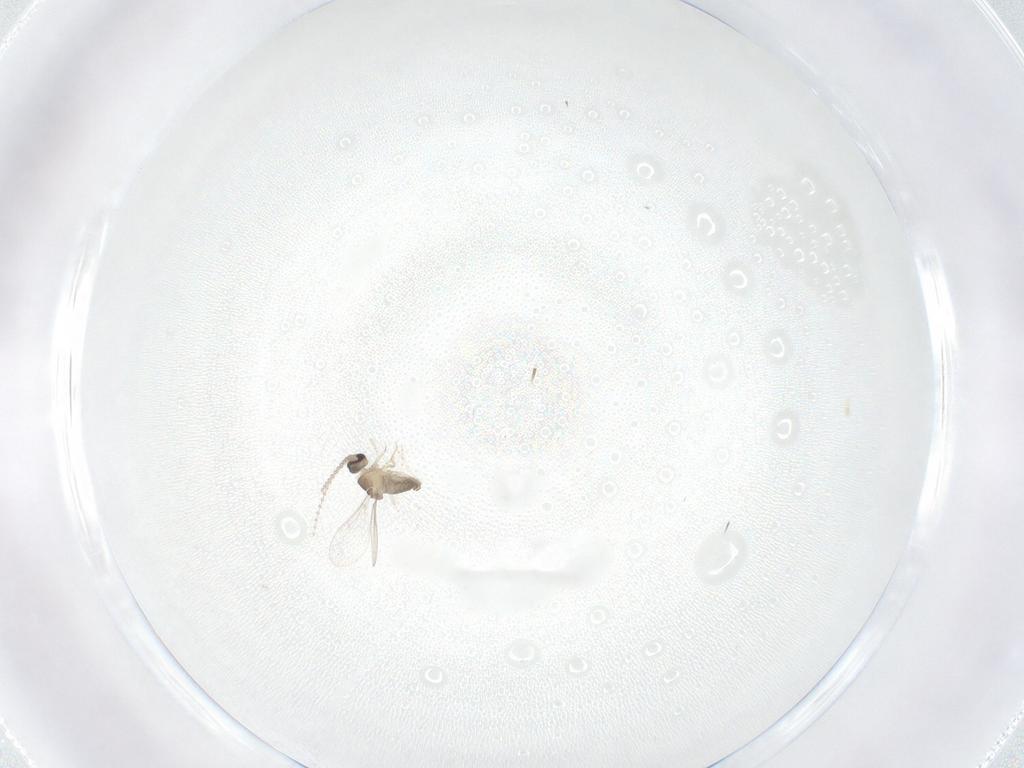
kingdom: Animalia
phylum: Arthropoda
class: Insecta
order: Diptera
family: Cecidomyiidae
